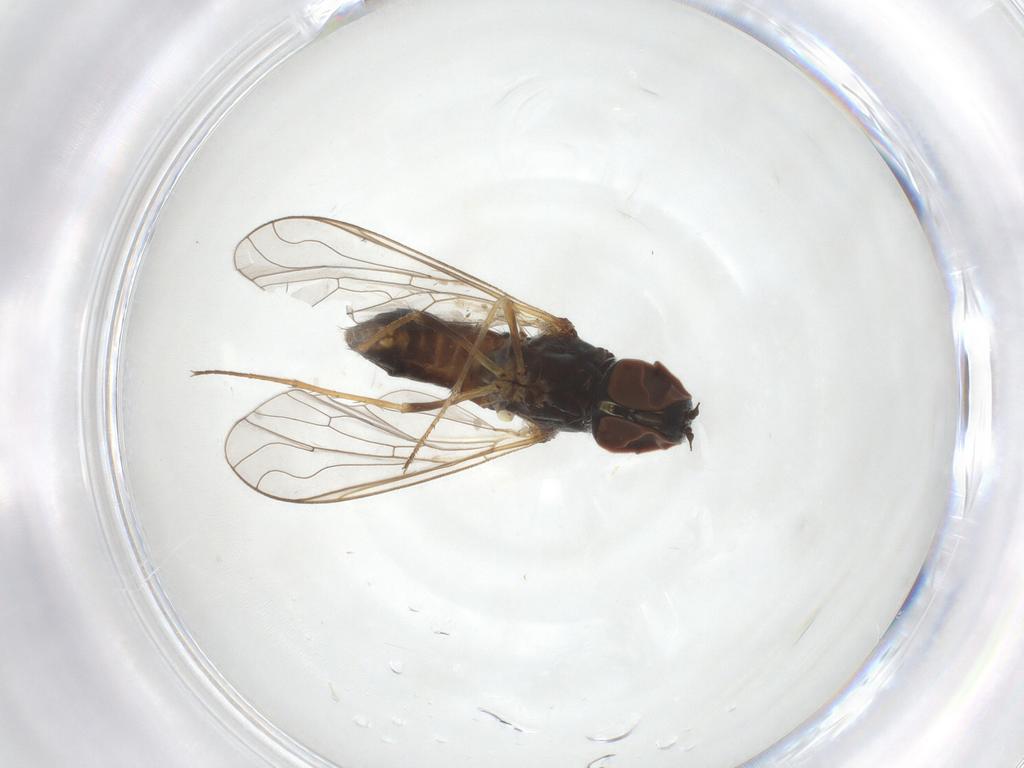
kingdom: Animalia
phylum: Arthropoda
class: Insecta
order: Diptera
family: Bombyliidae
